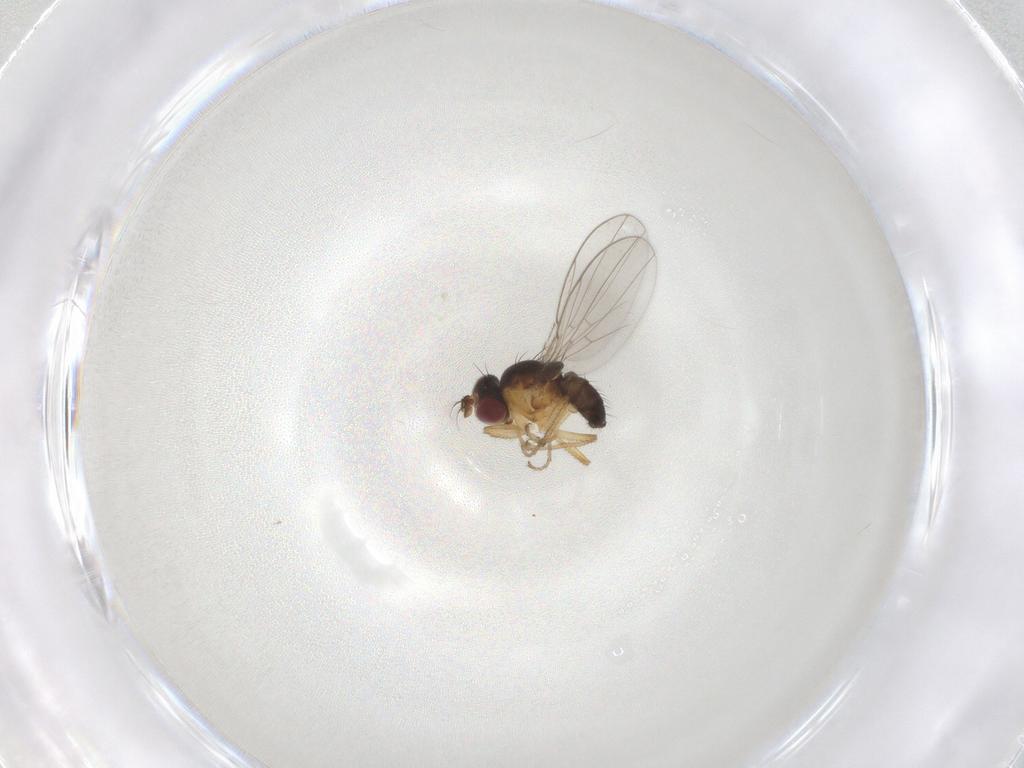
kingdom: Animalia
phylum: Arthropoda
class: Insecta
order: Diptera
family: Ephydridae
